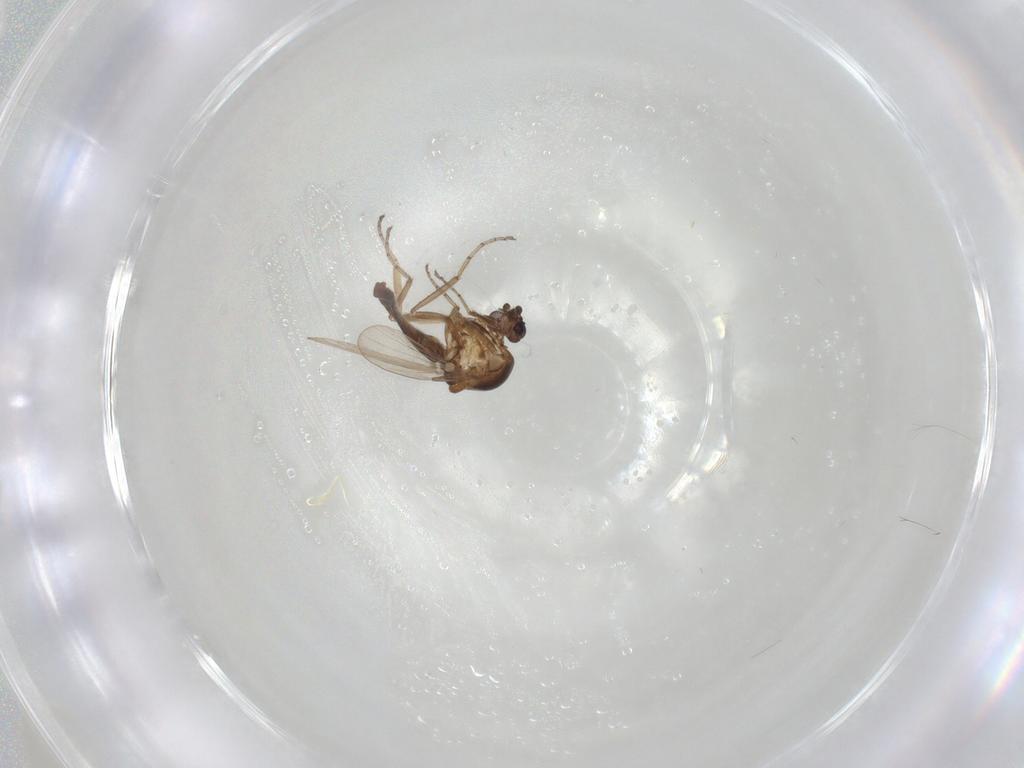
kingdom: Animalia
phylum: Arthropoda
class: Insecta
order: Diptera
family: Ceratopogonidae
